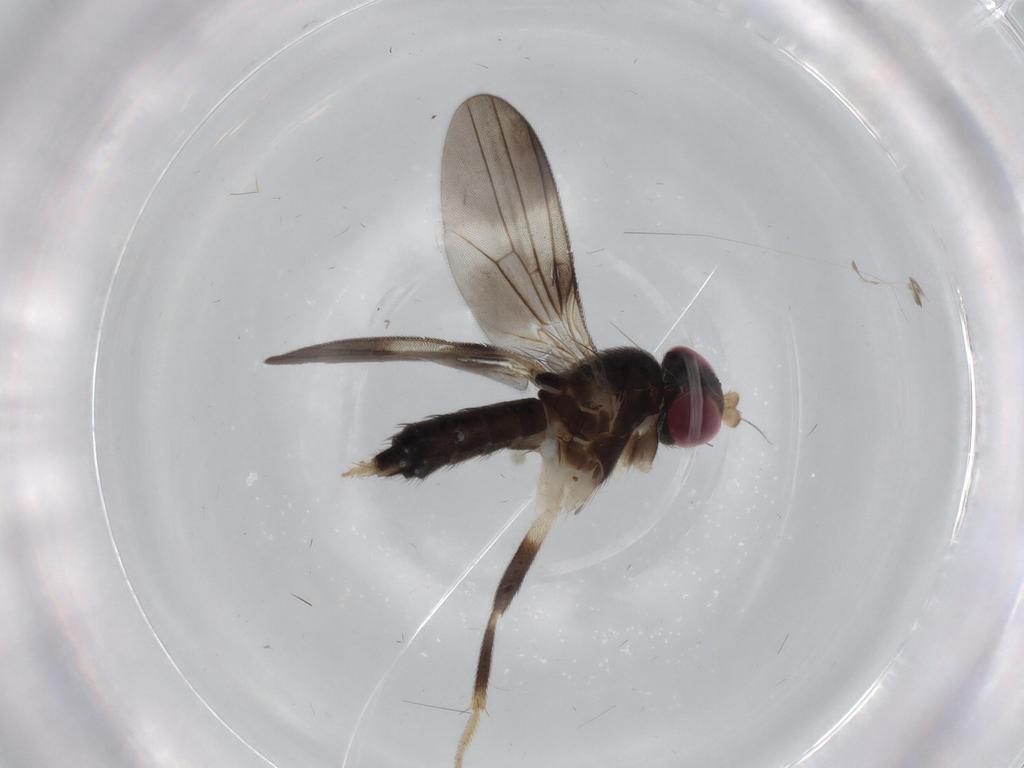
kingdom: Animalia
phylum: Arthropoda
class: Insecta
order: Diptera
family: Clusiidae
